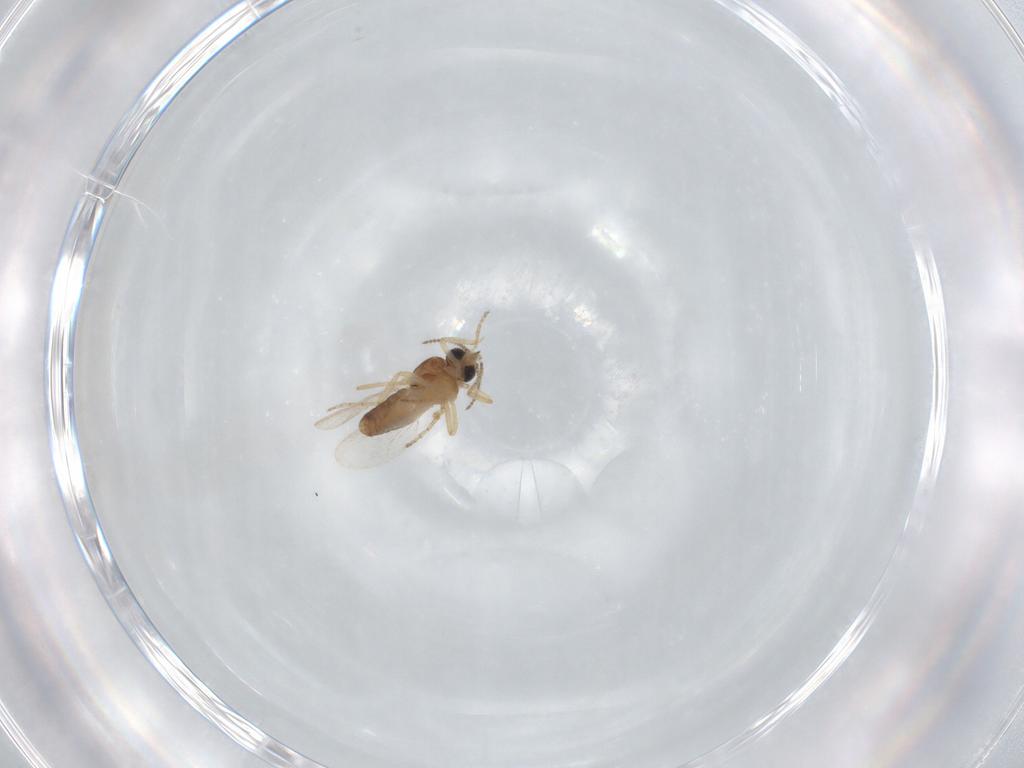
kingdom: Animalia
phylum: Arthropoda
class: Insecta
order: Diptera
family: Ceratopogonidae
